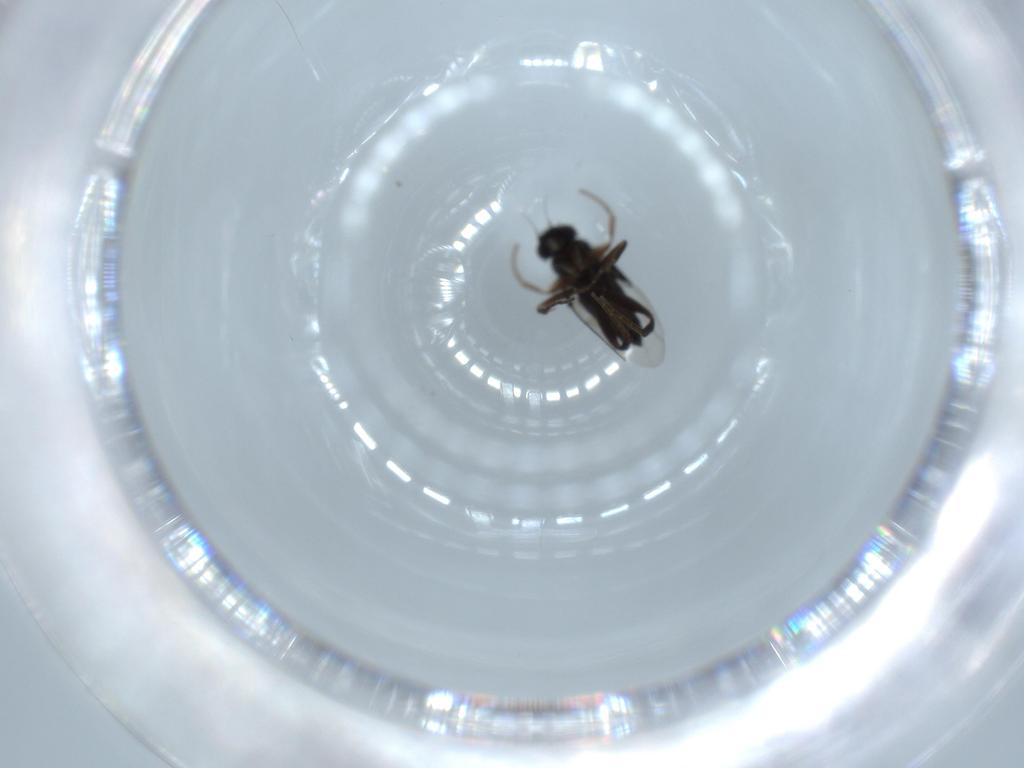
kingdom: Animalia
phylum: Arthropoda
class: Insecta
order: Diptera
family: Phoridae
